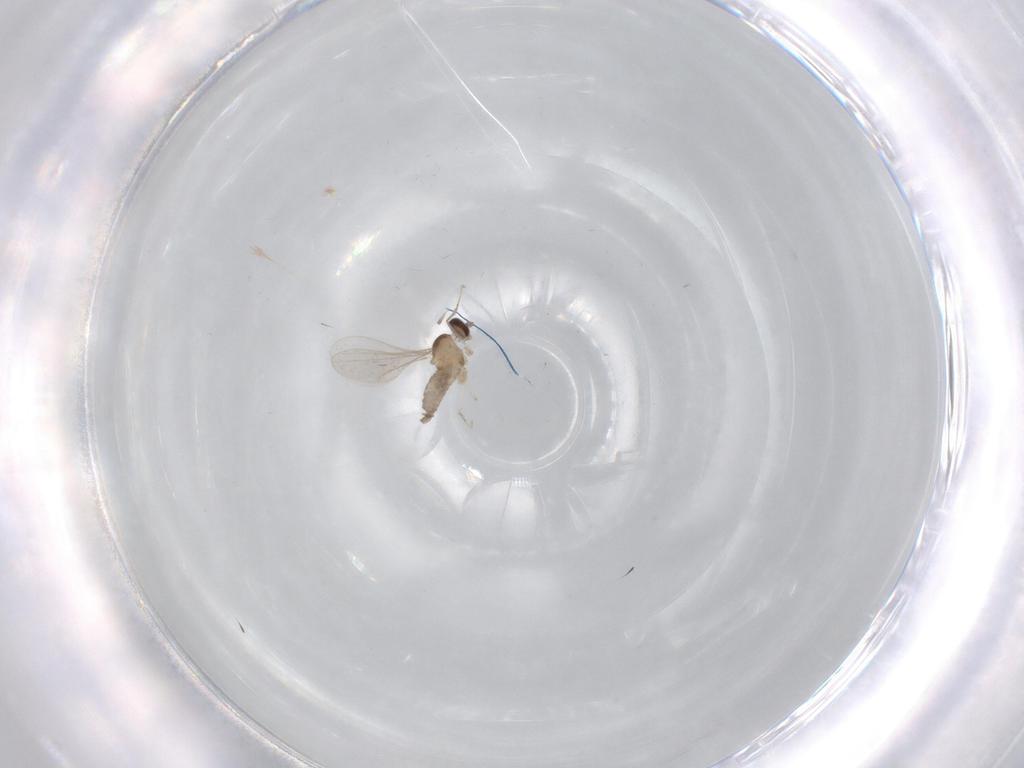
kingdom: Animalia
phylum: Arthropoda
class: Insecta
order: Diptera
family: Cecidomyiidae
